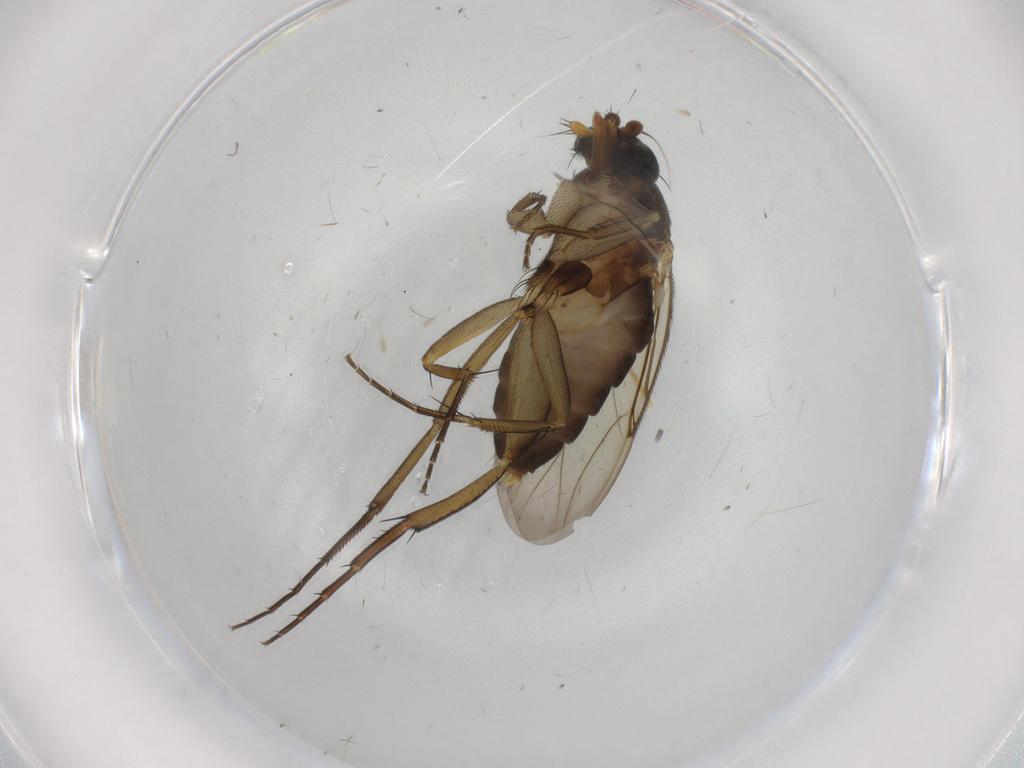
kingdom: Animalia
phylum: Arthropoda
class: Insecta
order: Diptera
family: Phoridae
